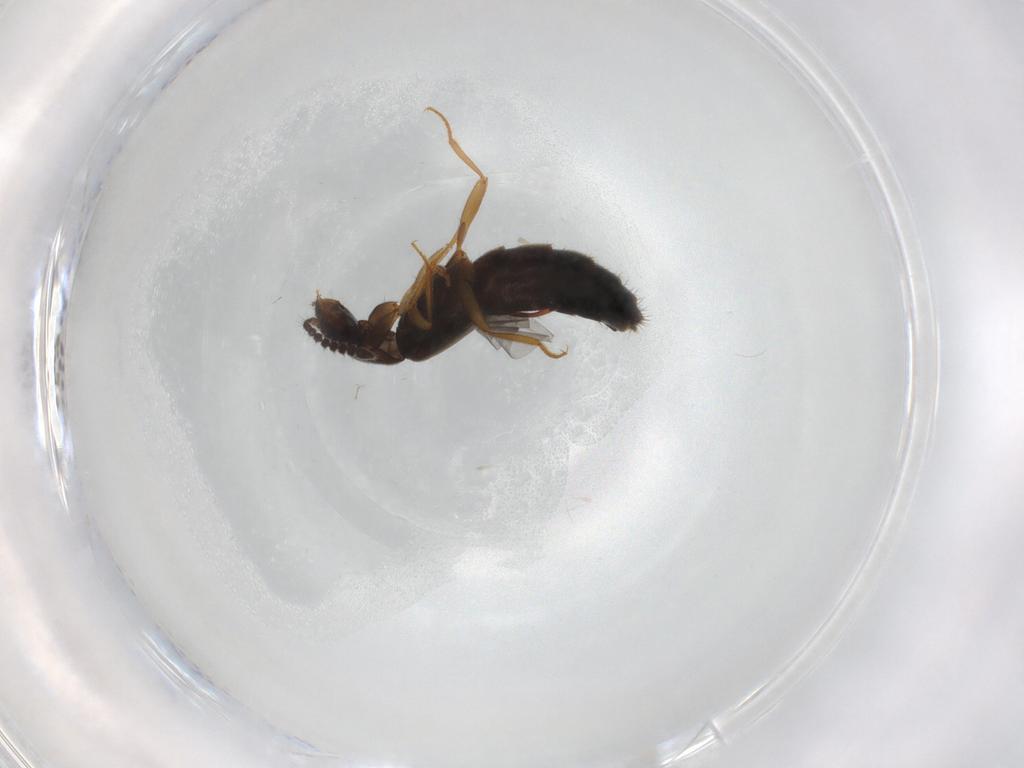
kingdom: Animalia
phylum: Arthropoda
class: Insecta
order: Coleoptera
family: Staphylinidae
